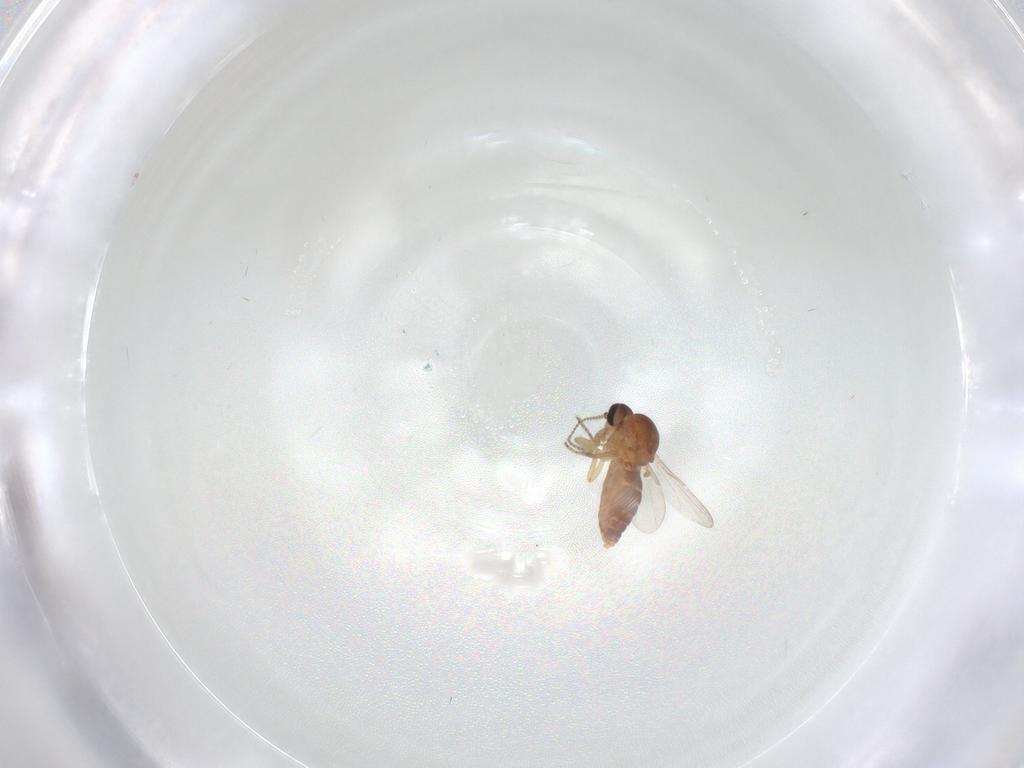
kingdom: Animalia
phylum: Arthropoda
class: Insecta
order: Diptera
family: Ceratopogonidae
